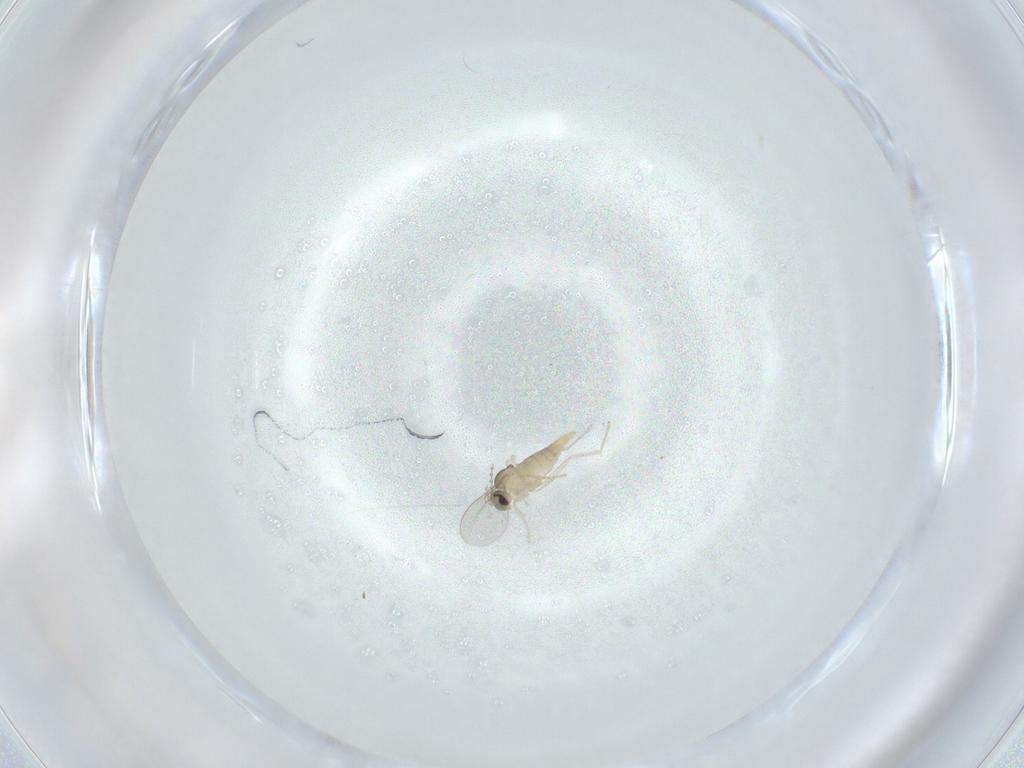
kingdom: Animalia
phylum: Arthropoda
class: Insecta
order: Diptera
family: Cecidomyiidae
